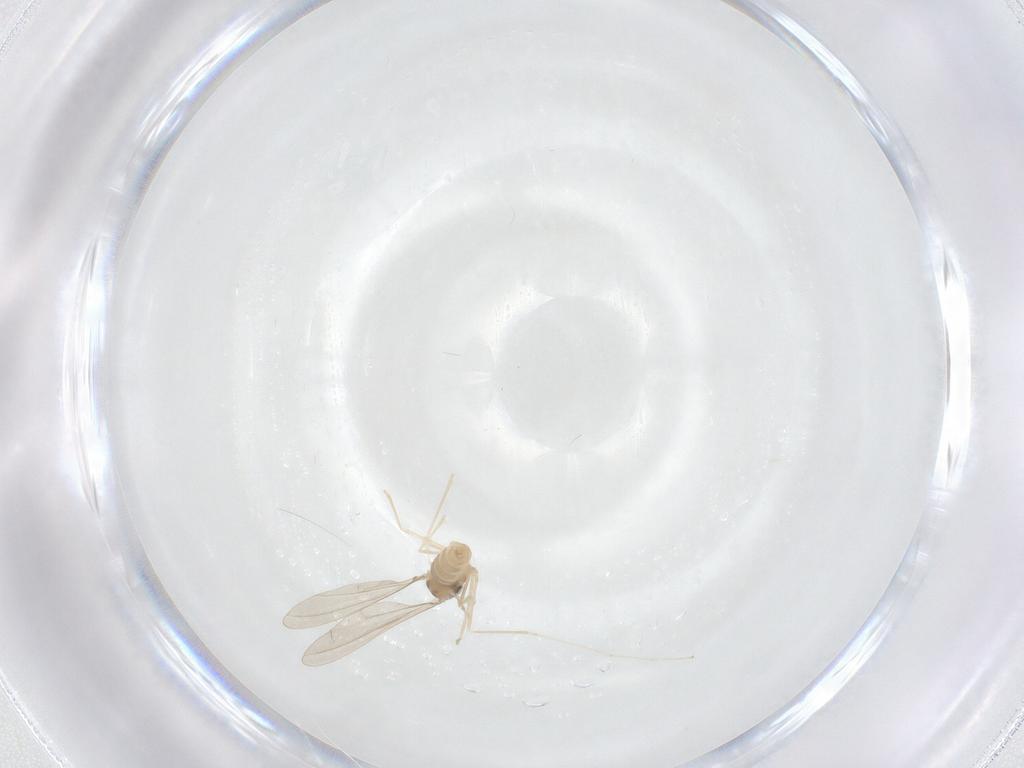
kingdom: Animalia
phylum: Arthropoda
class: Insecta
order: Diptera
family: Cecidomyiidae
